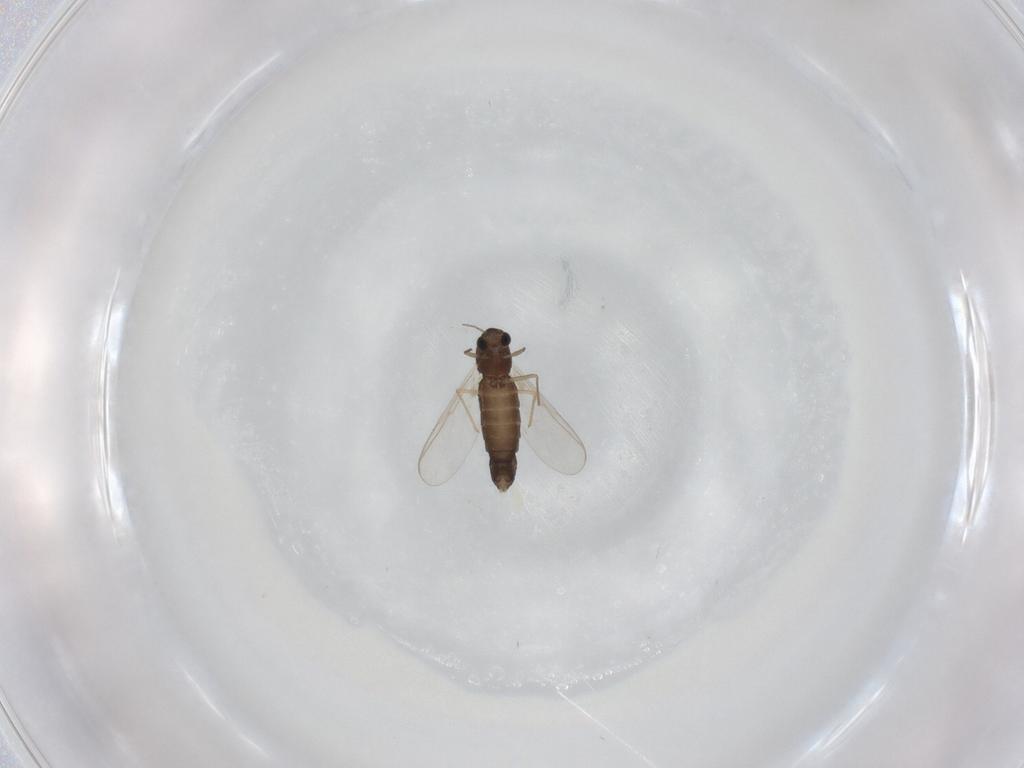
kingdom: Animalia
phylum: Arthropoda
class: Insecta
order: Diptera
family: Chironomidae
